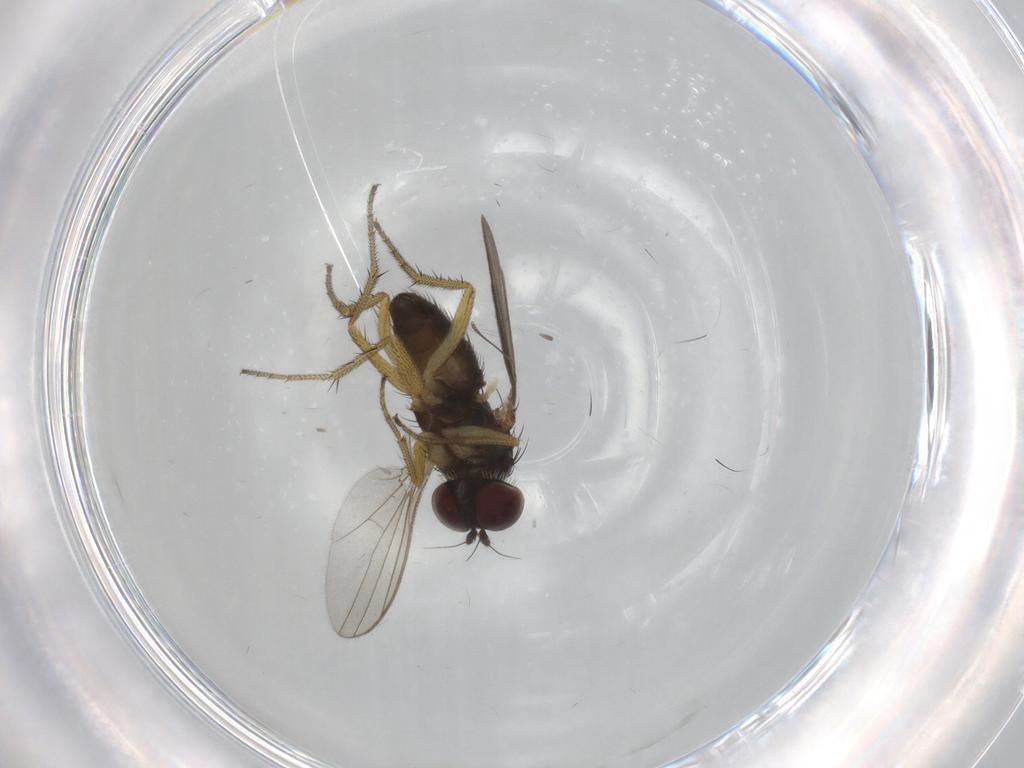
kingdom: Animalia
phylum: Arthropoda
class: Insecta
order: Diptera
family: Chironomidae
